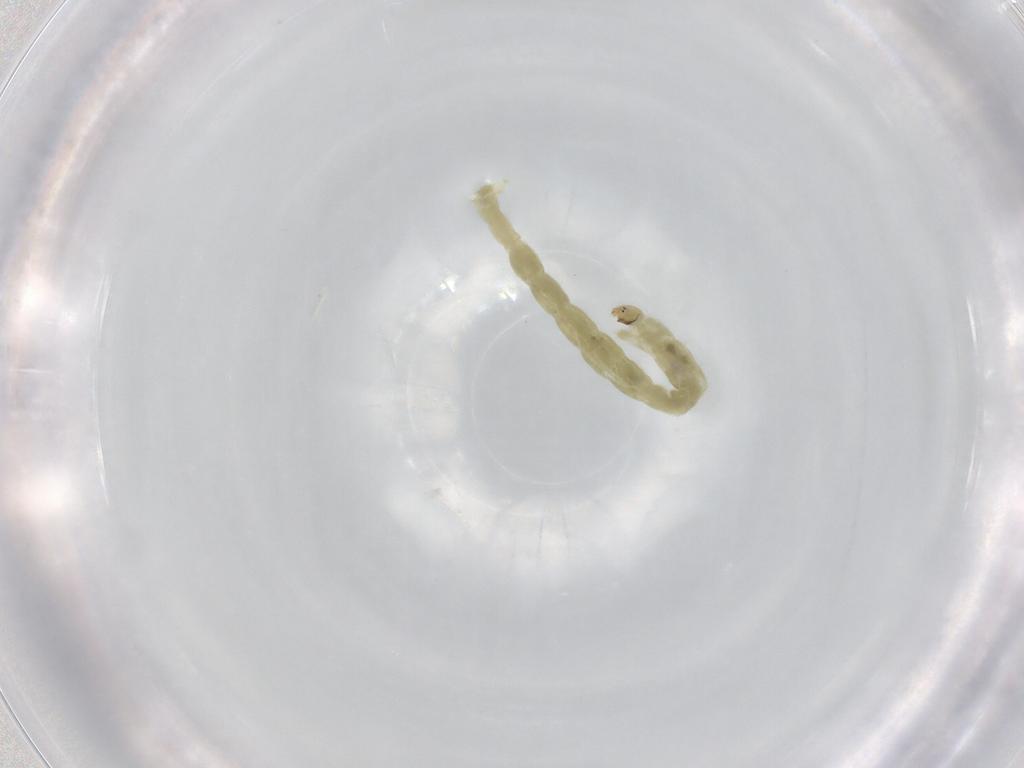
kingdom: Animalia
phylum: Arthropoda
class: Insecta
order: Diptera
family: Chironomidae
